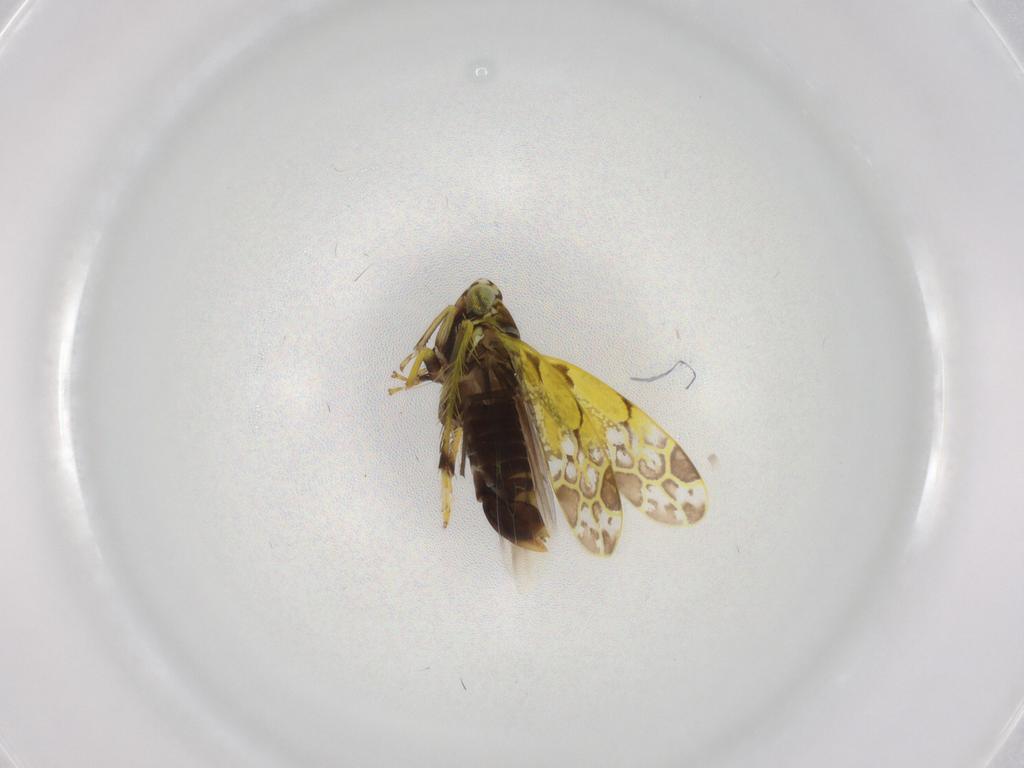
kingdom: Animalia
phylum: Arthropoda
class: Insecta
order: Hemiptera
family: Cicadellidae
